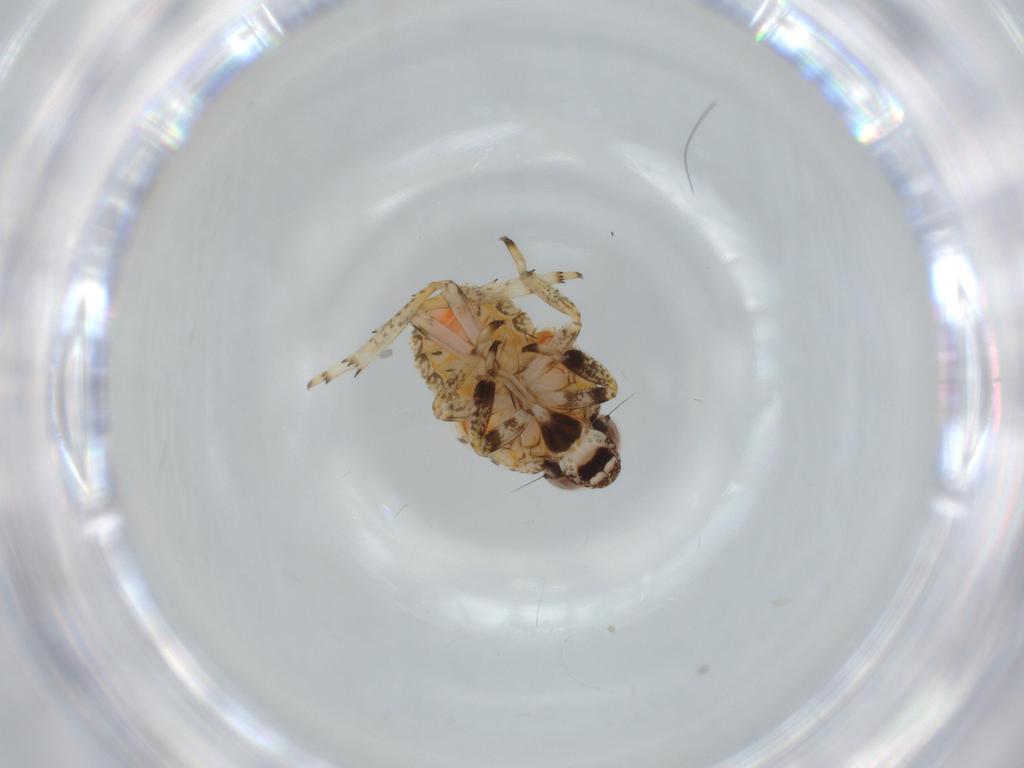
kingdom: Animalia
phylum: Arthropoda
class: Insecta
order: Hemiptera
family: Issidae
